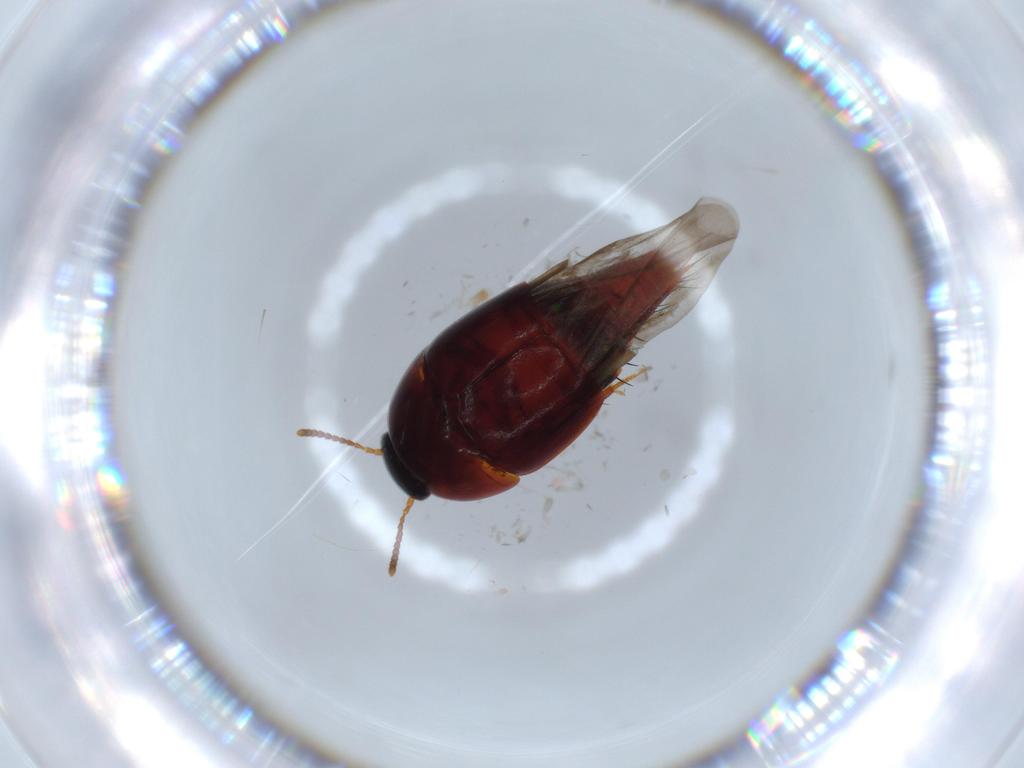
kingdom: Animalia
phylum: Arthropoda
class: Insecta
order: Coleoptera
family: Staphylinidae
